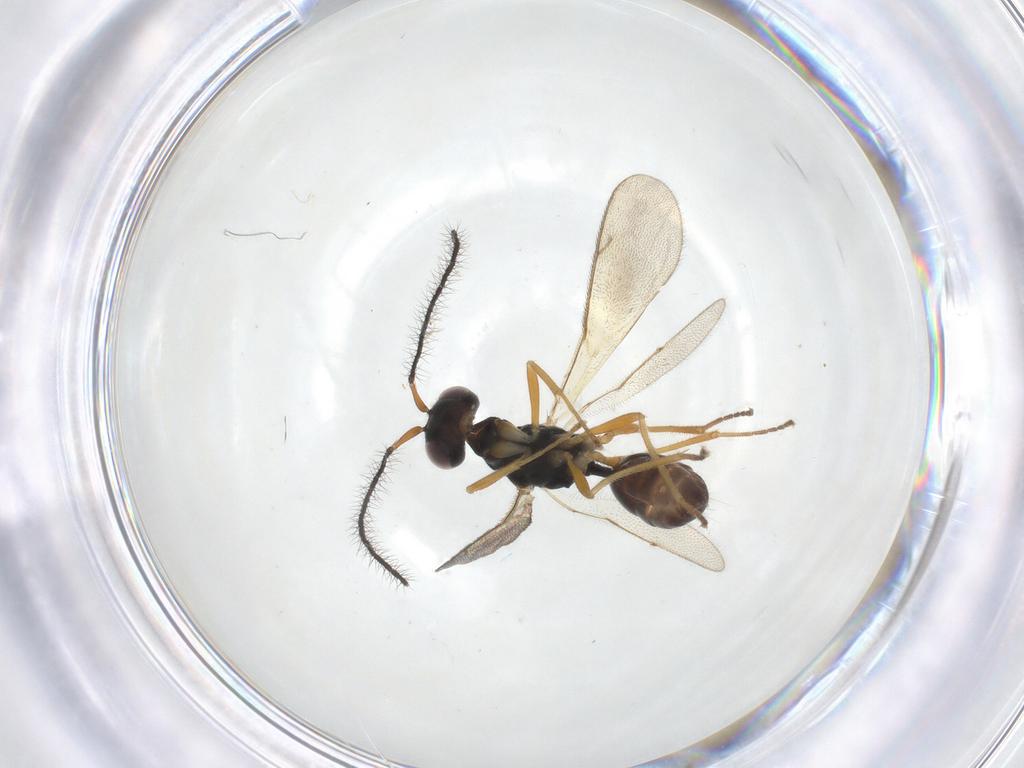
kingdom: Animalia
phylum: Arthropoda
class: Insecta
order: Hymenoptera
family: Diparidae
